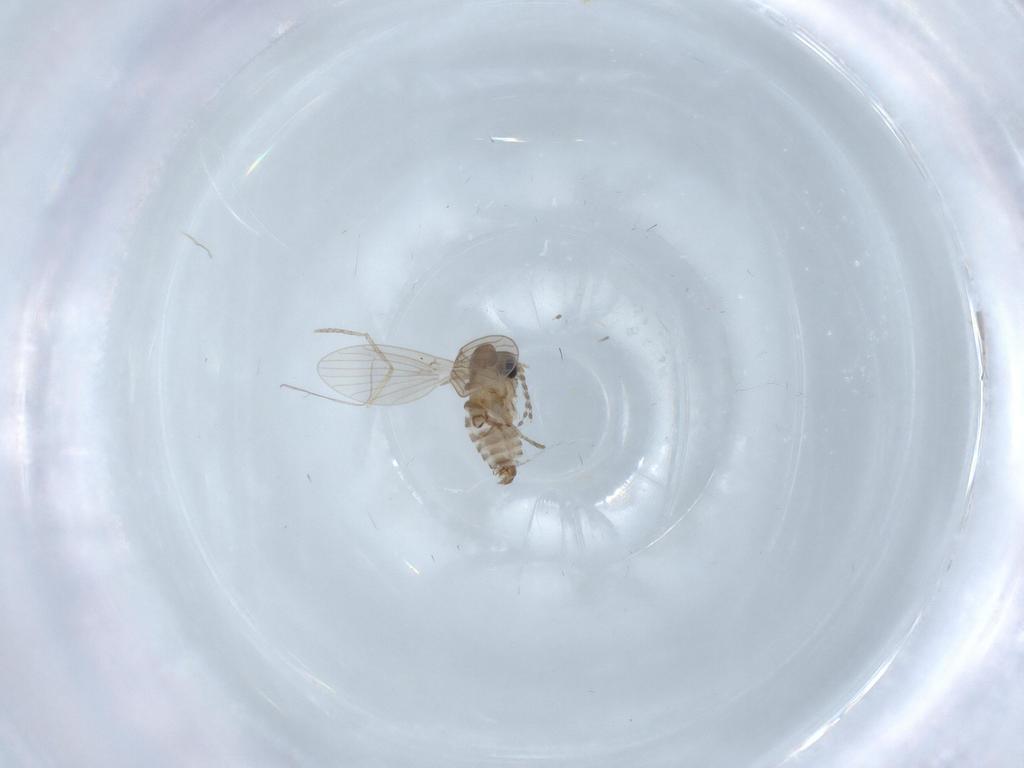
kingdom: Animalia
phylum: Arthropoda
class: Insecta
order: Diptera
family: Psychodidae
